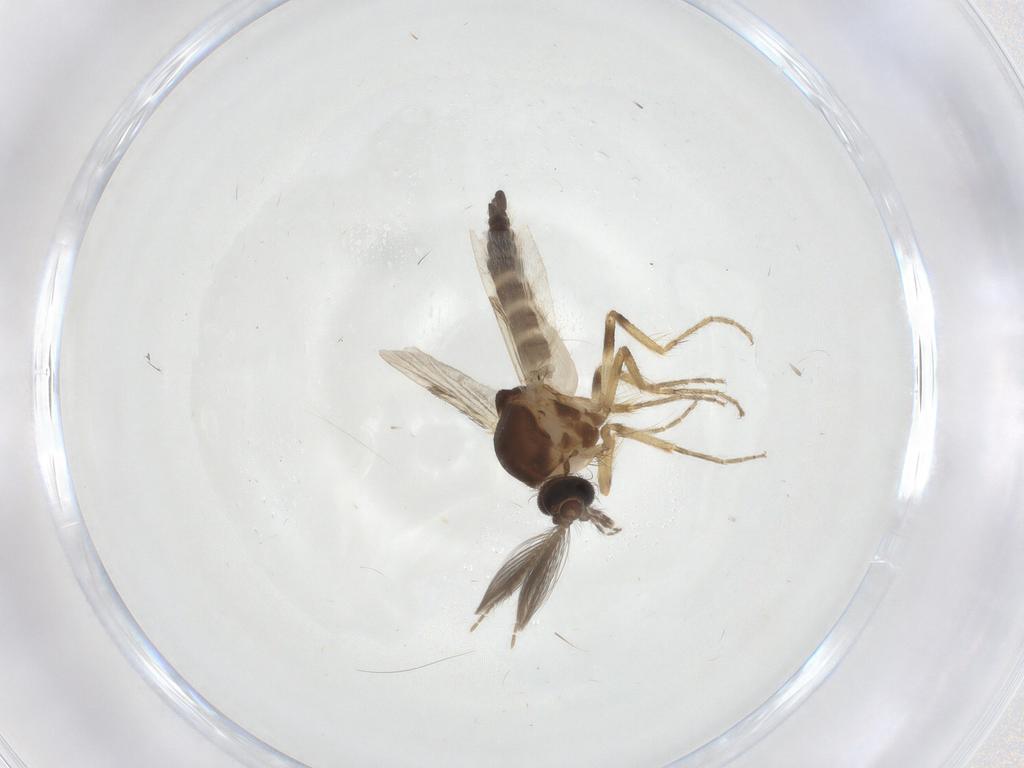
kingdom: Animalia
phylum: Arthropoda
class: Insecta
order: Diptera
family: Ceratopogonidae
